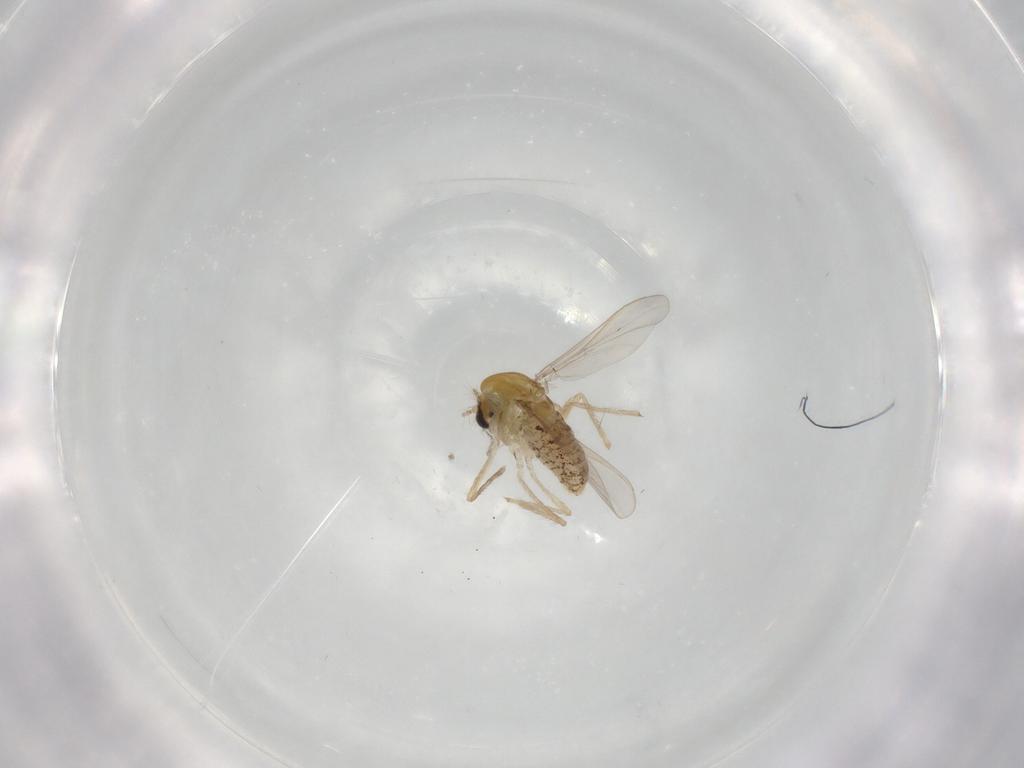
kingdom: Animalia
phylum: Arthropoda
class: Insecta
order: Diptera
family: Chironomidae
